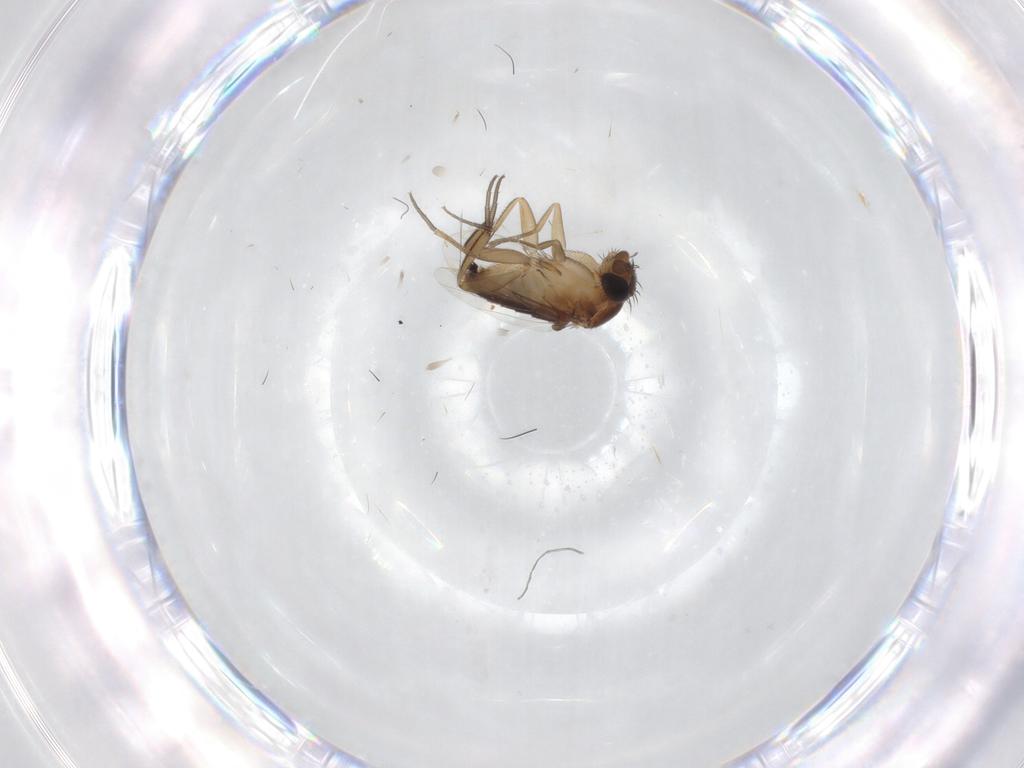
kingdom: Animalia
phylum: Arthropoda
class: Insecta
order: Diptera
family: Phoridae
